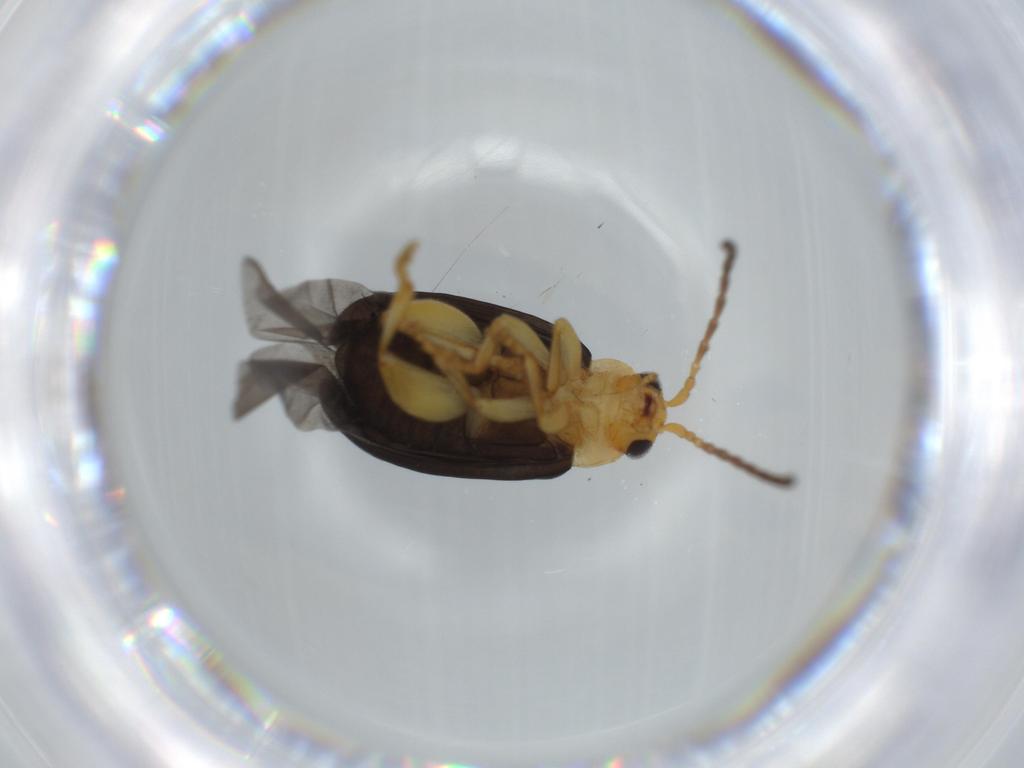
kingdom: Animalia
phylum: Arthropoda
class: Insecta
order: Coleoptera
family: Chrysomelidae
